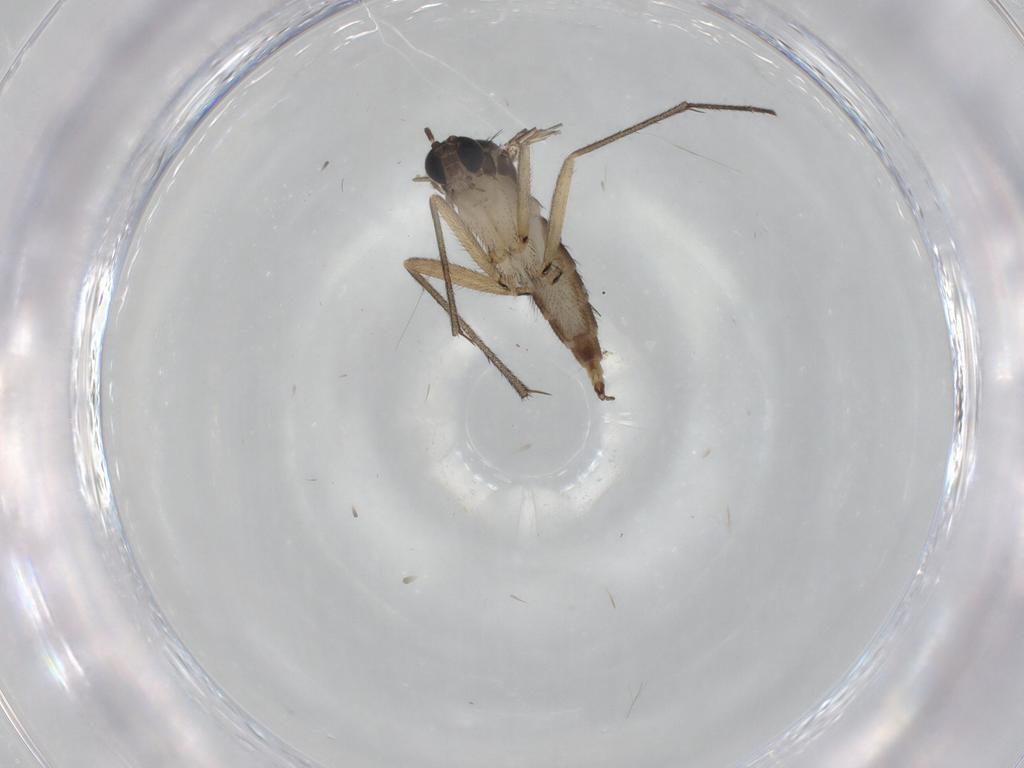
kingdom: Animalia
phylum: Arthropoda
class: Insecta
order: Diptera
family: Sciaridae
